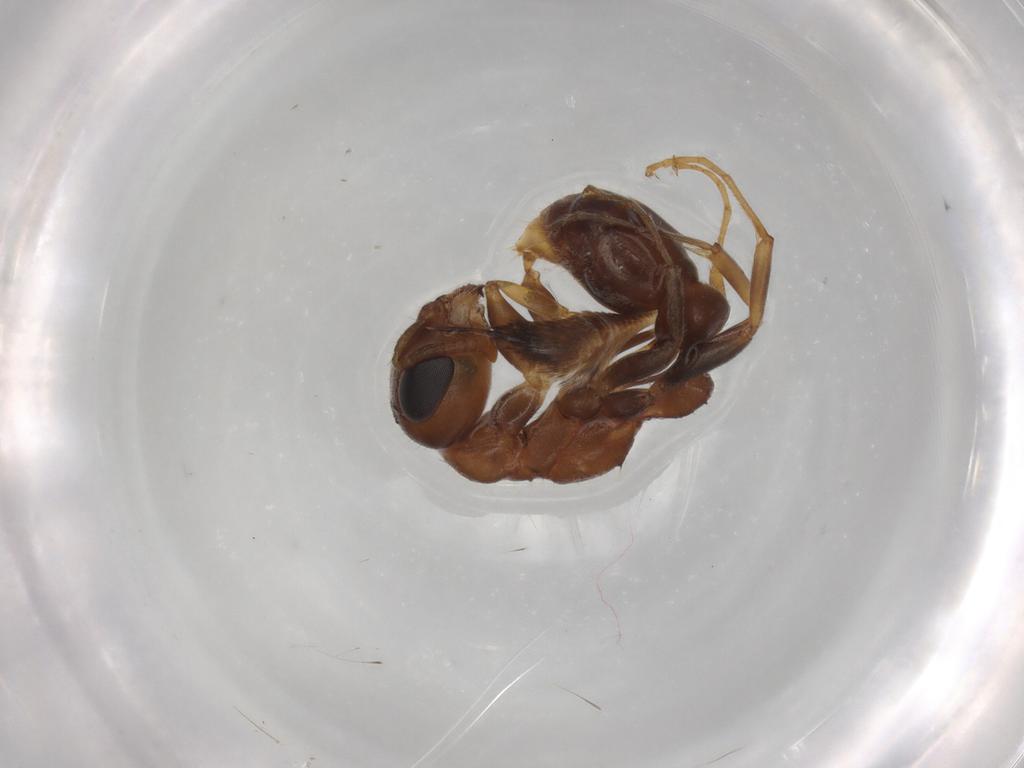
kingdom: Animalia
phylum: Arthropoda
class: Insecta
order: Hymenoptera
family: Formicidae
